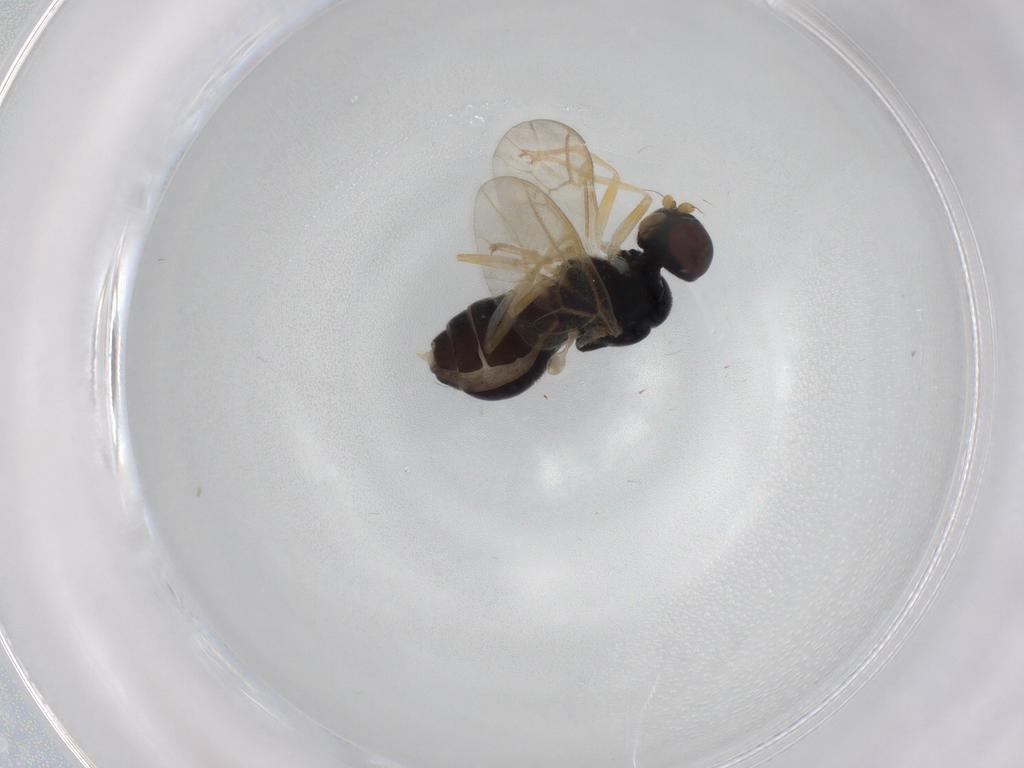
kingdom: Animalia
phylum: Arthropoda
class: Insecta
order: Diptera
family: Stratiomyidae
